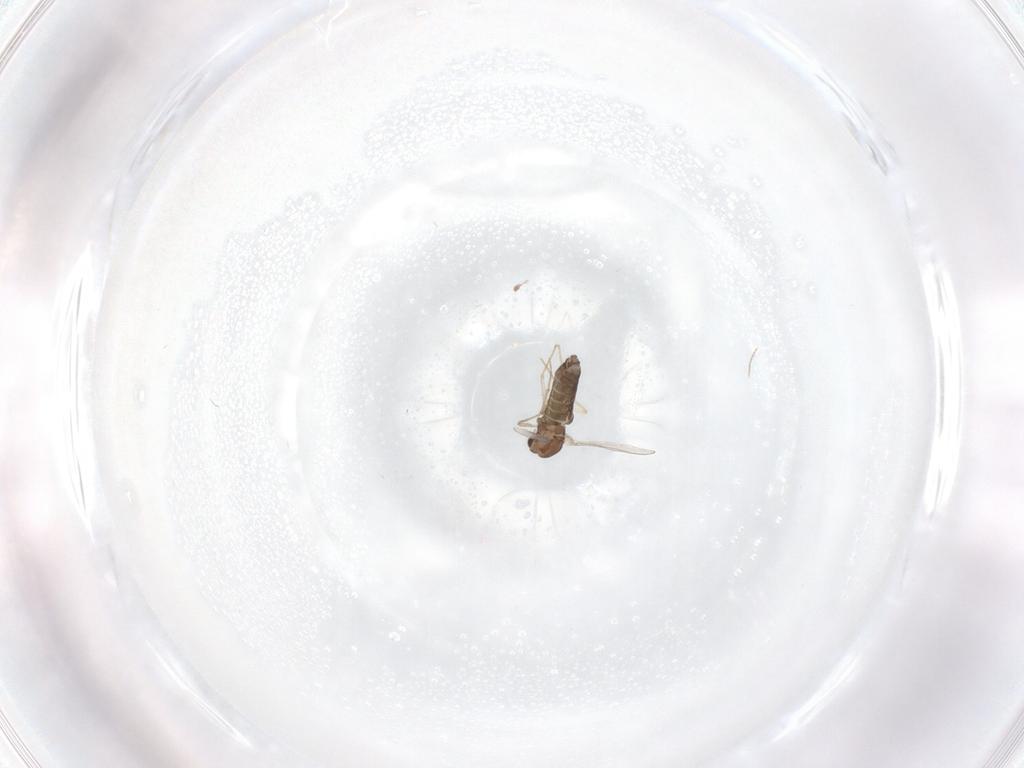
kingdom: Animalia
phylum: Arthropoda
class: Insecta
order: Diptera
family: Chironomidae
